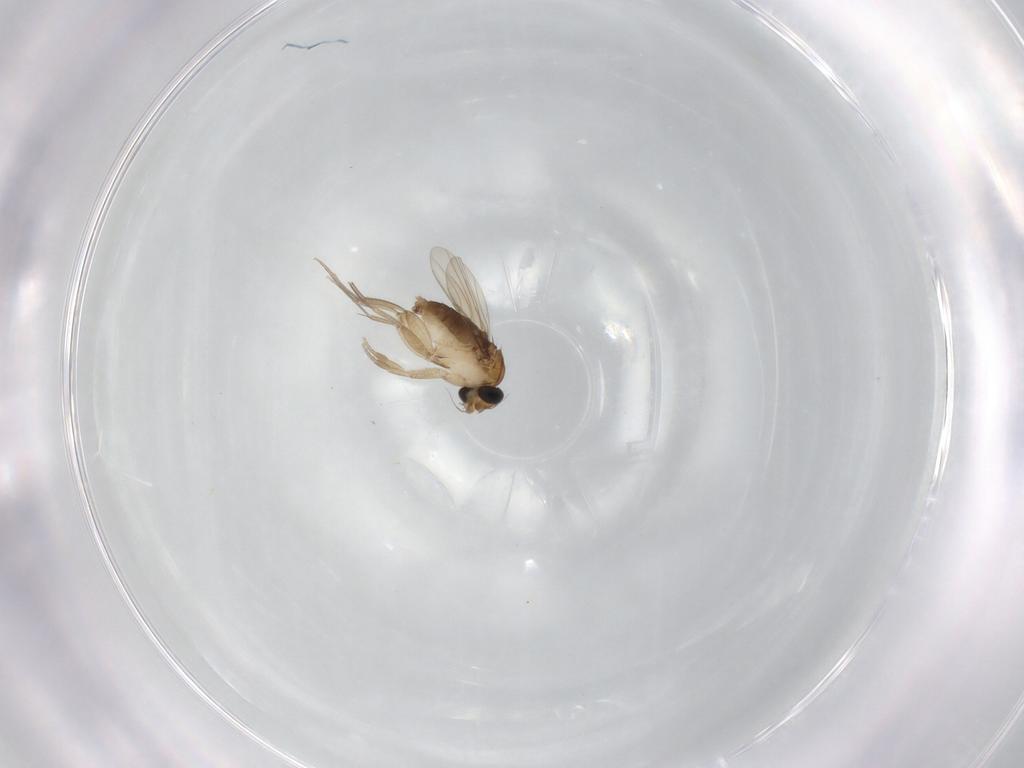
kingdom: Animalia
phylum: Arthropoda
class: Insecta
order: Diptera
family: Phoridae
